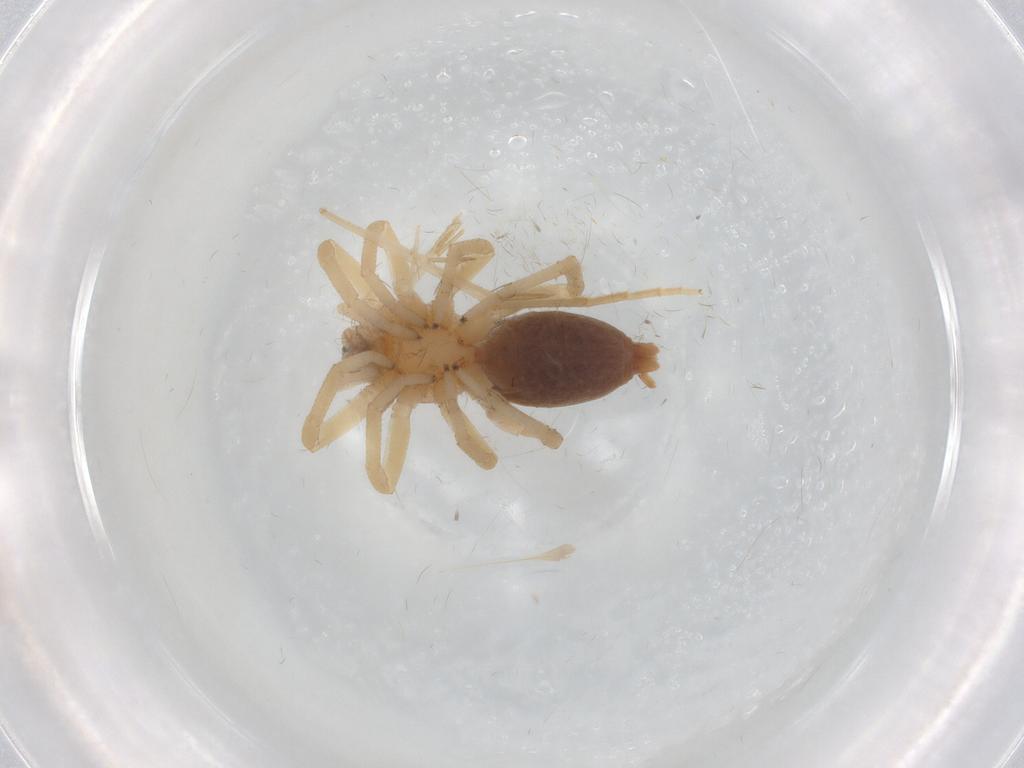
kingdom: Animalia
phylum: Arthropoda
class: Arachnida
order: Araneae
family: Clubionidae
